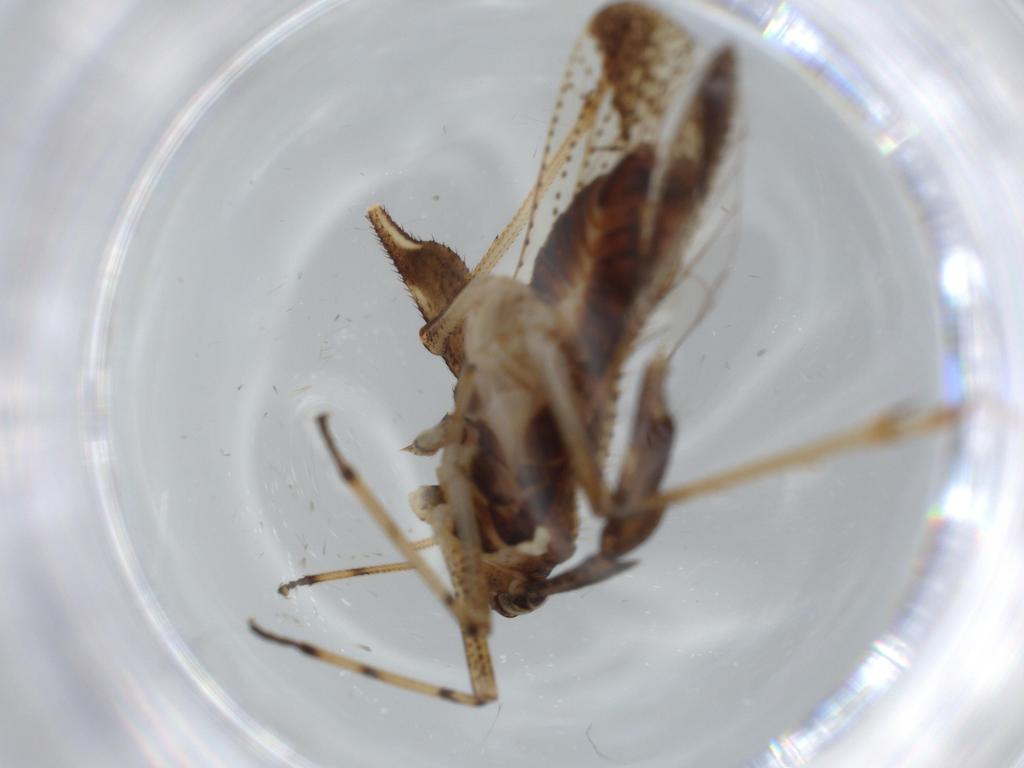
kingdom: Animalia
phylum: Arthropoda
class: Insecta
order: Hemiptera
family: Delphacidae
